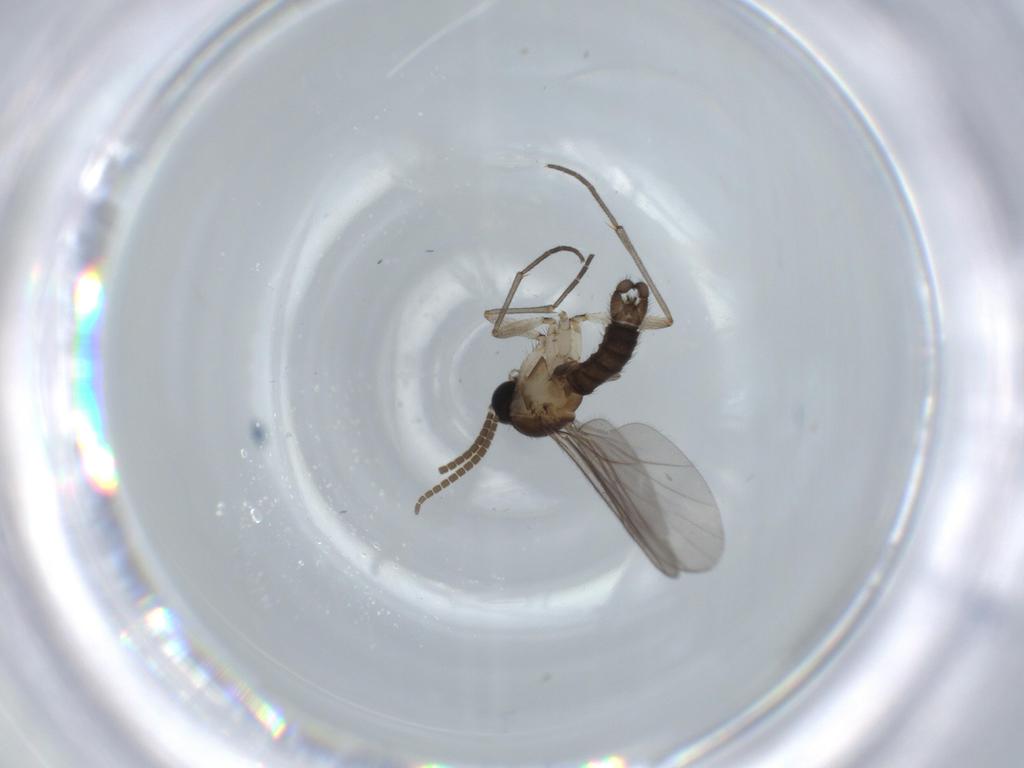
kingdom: Animalia
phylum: Arthropoda
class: Insecta
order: Diptera
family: Sciaridae
